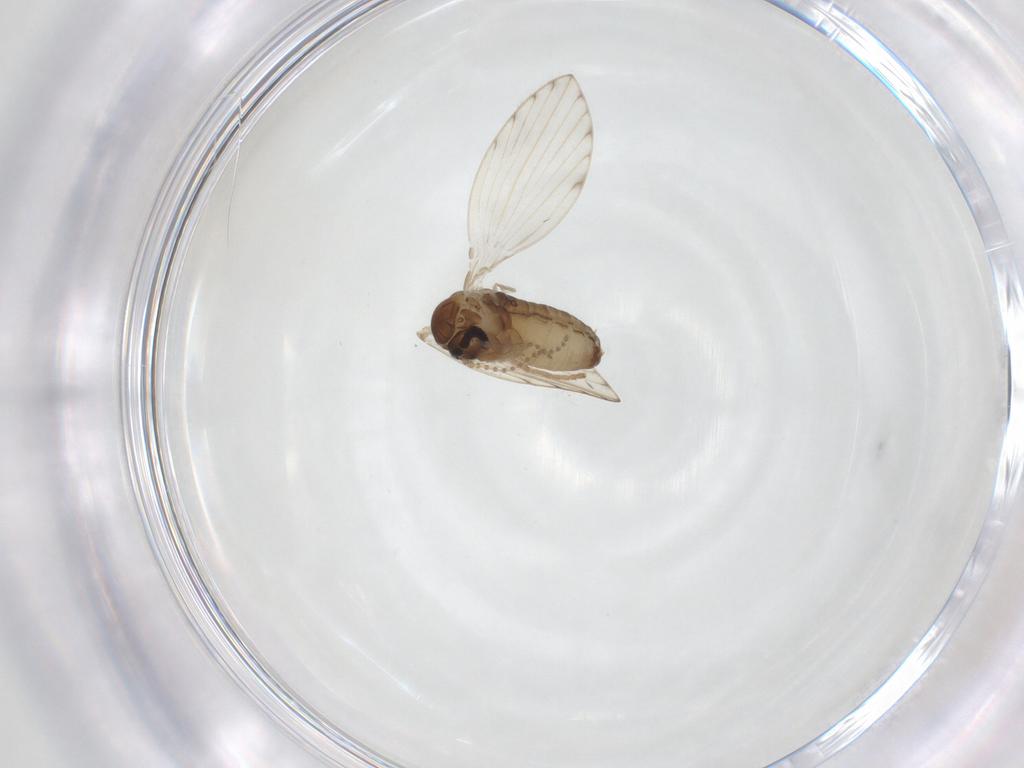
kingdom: Animalia
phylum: Arthropoda
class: Insecta
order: Diptera
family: Psychodidae
